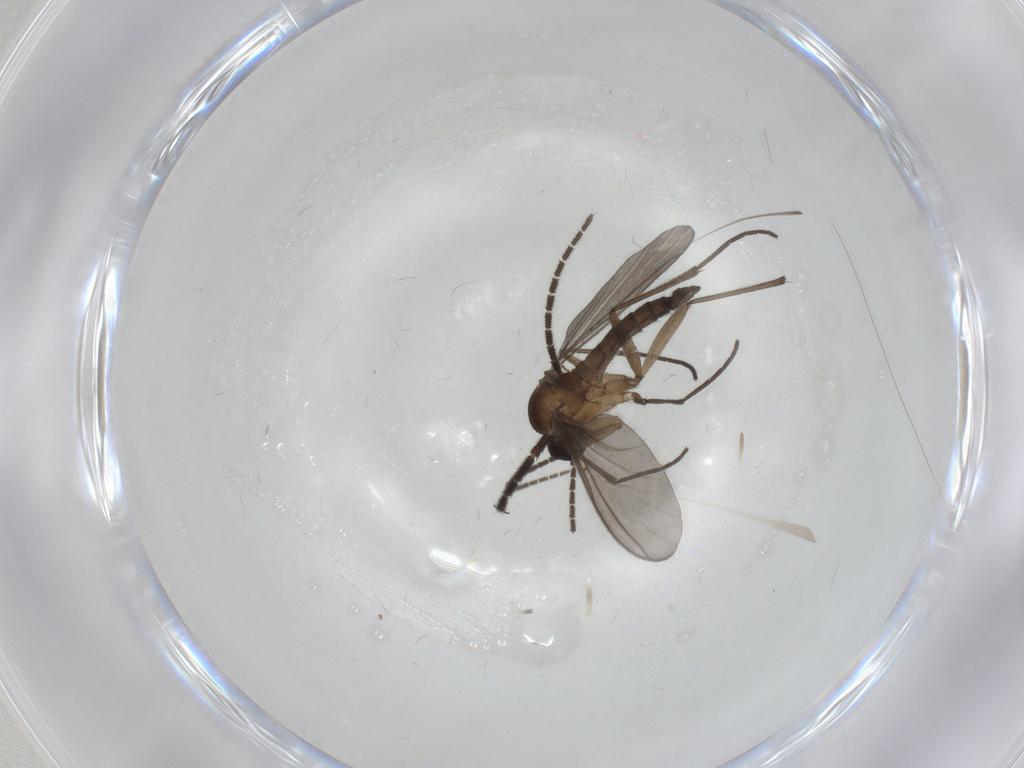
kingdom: Animalia
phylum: Arthropoda
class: Insecta
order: Diptera
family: Sciaridae
